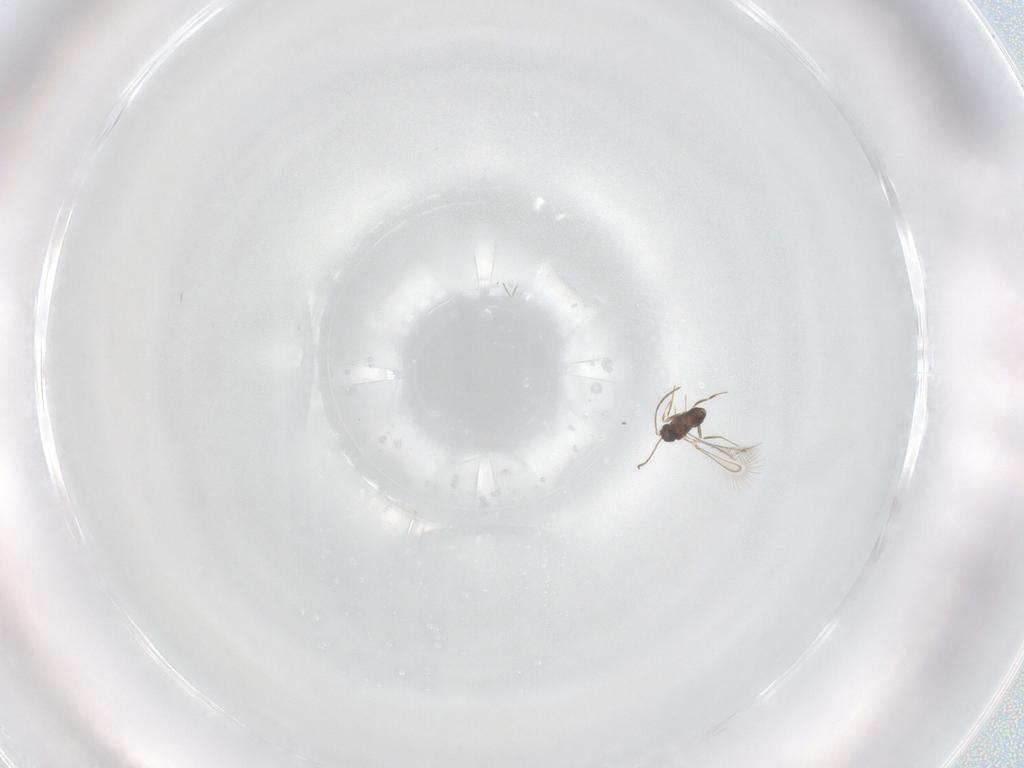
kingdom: Animalia
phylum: Arthropoda
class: Insecta
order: Hymenoptera
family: Mymaridae
